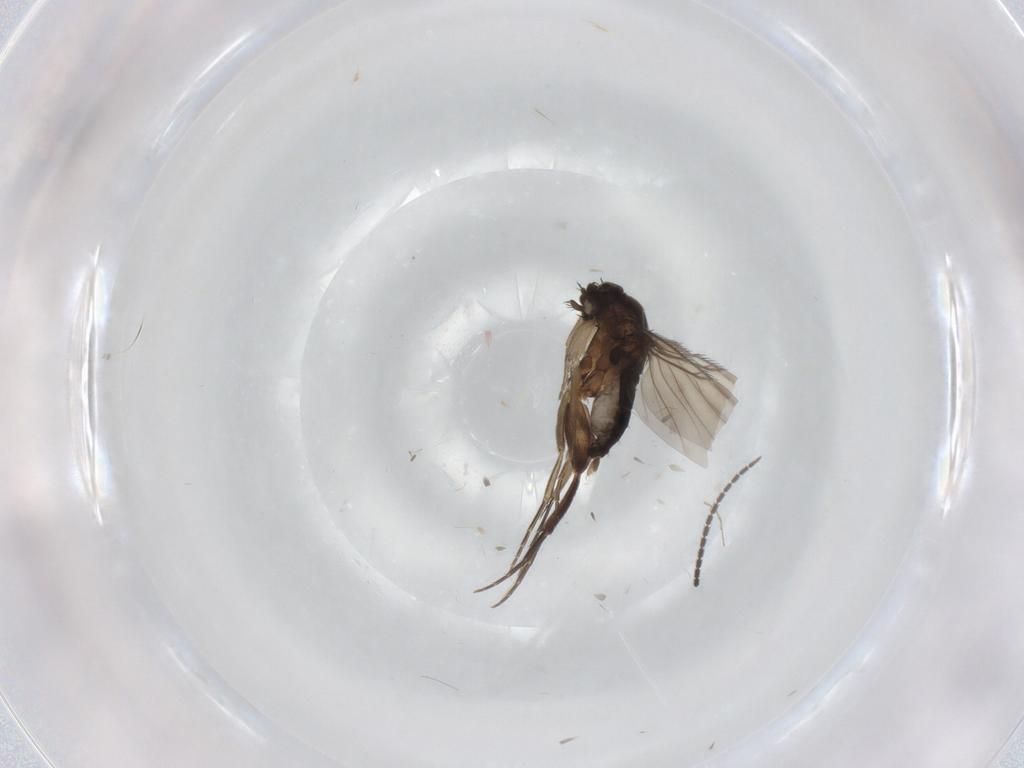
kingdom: Animalia
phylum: Arthropoda
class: Insecta
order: Diptera
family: Phoridae
